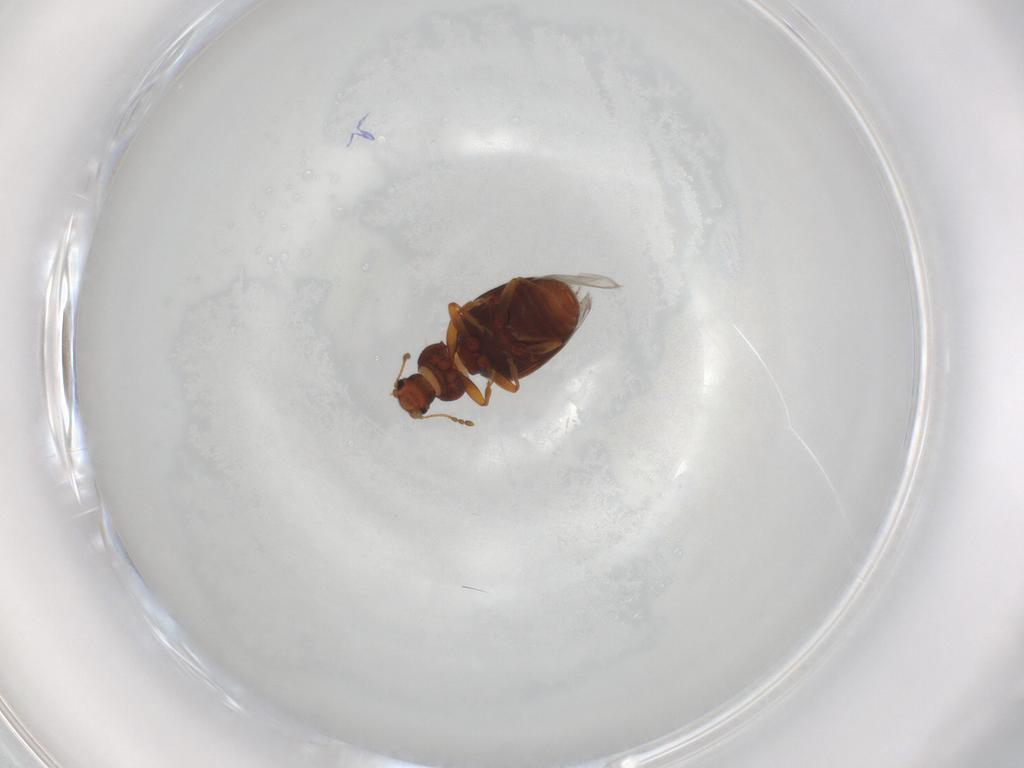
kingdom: Animalia
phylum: Arthropoda
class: Insecta
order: Coleoptera
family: Latridiidae
